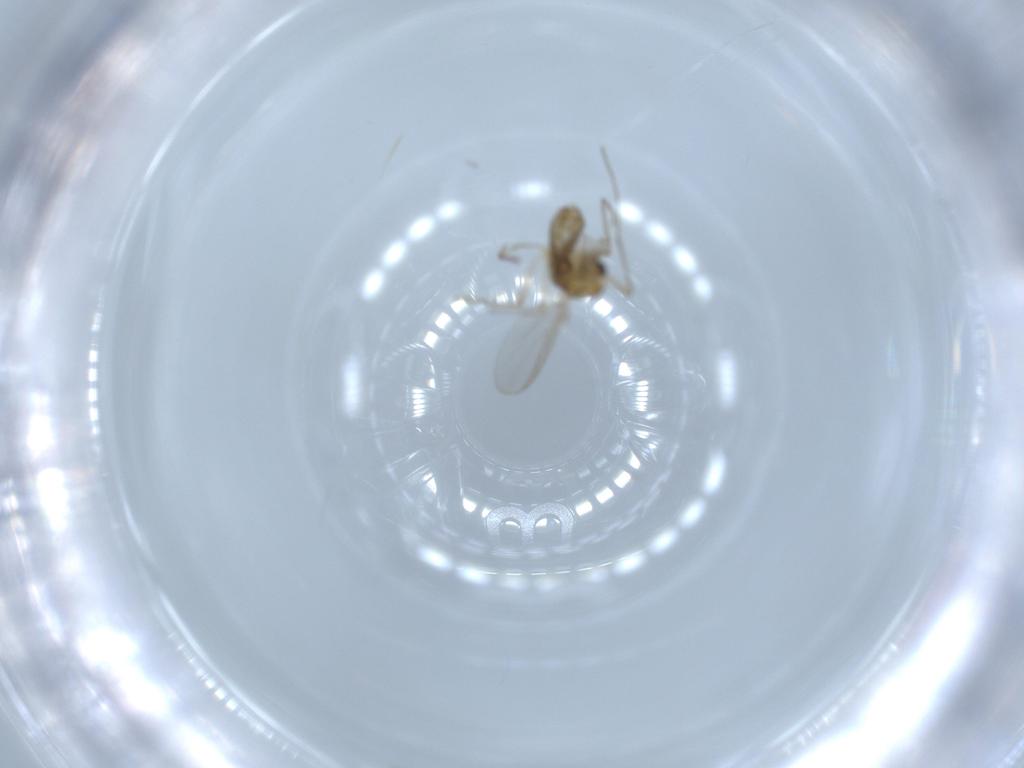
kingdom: Animalia
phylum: Arthropoda
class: Insecta
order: Diptera
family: Chironomidae
